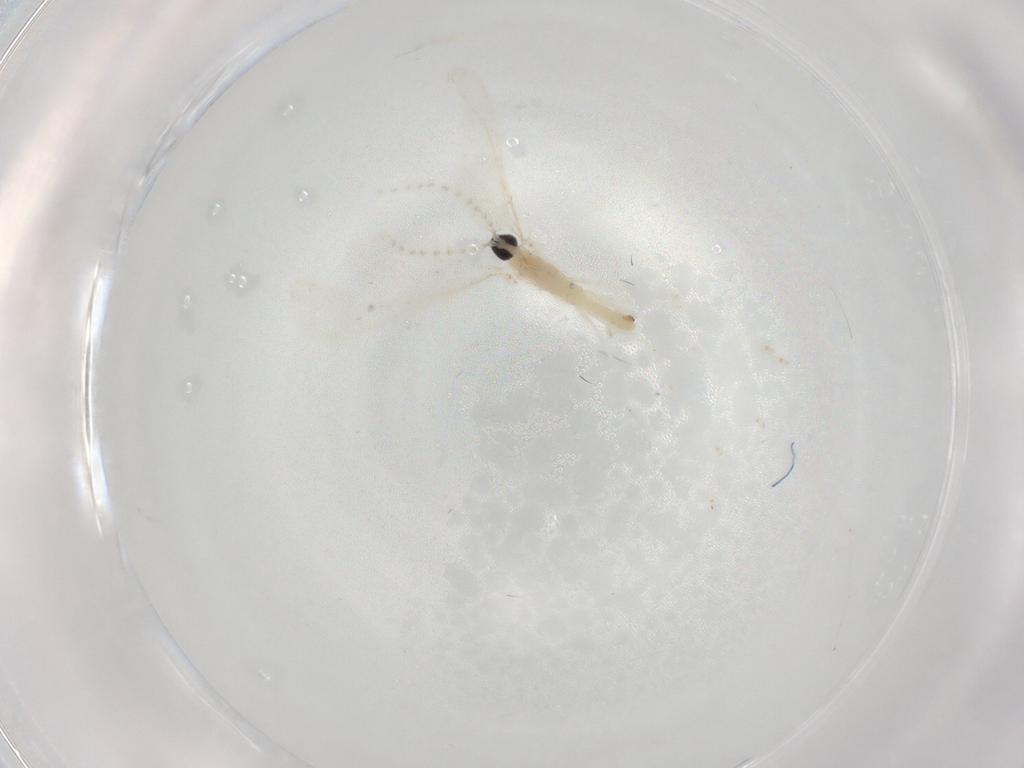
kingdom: Animalia
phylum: Arthropoda
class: Insecta
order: Diptera
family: Cecidomyiidae
